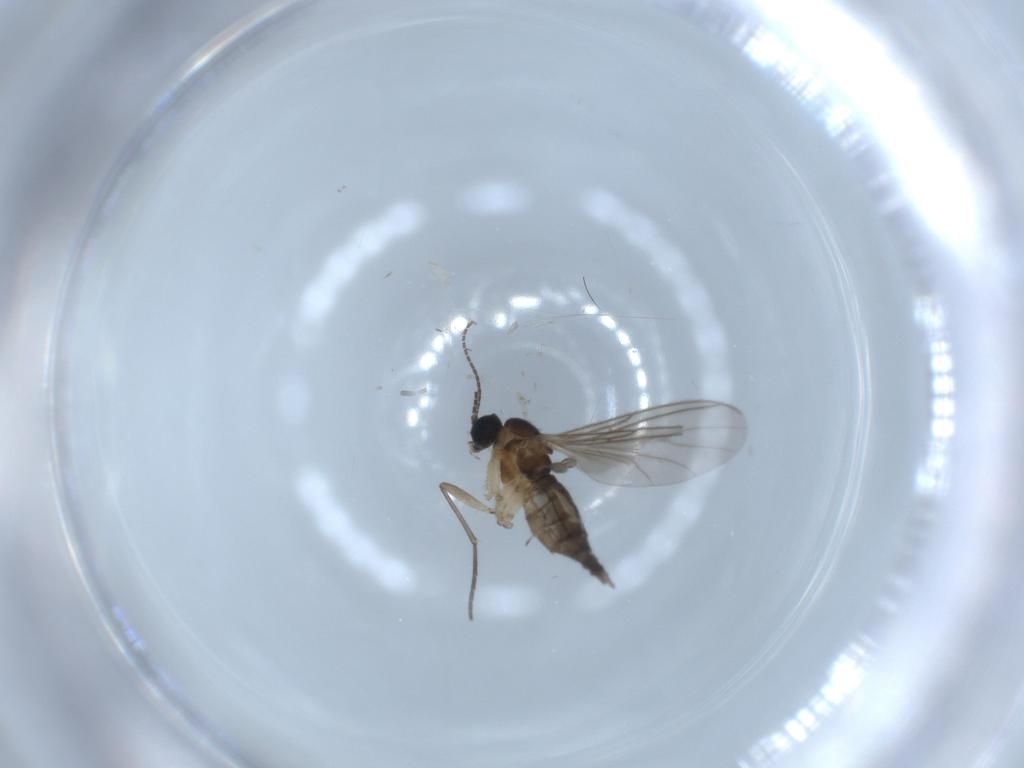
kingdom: Animalia
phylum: Arthropoda
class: Insecta
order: Diptera
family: Sciaridae
